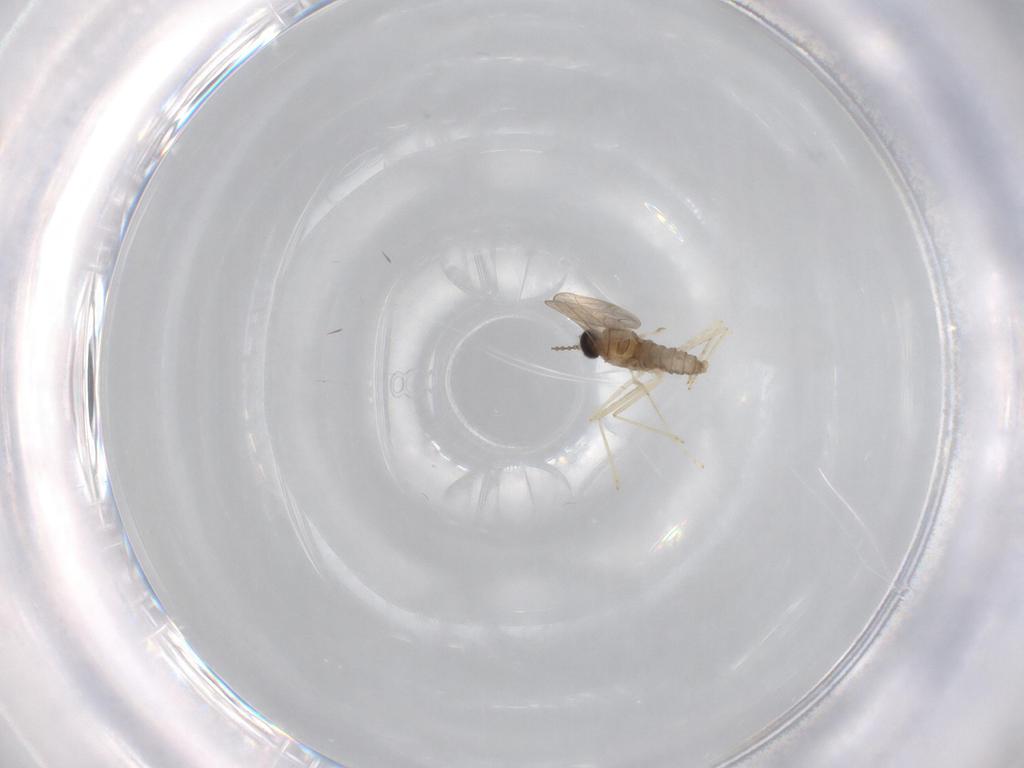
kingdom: Animalia
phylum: Arthropoda
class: Insecta
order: Diptera
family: Cecidomyiidae
